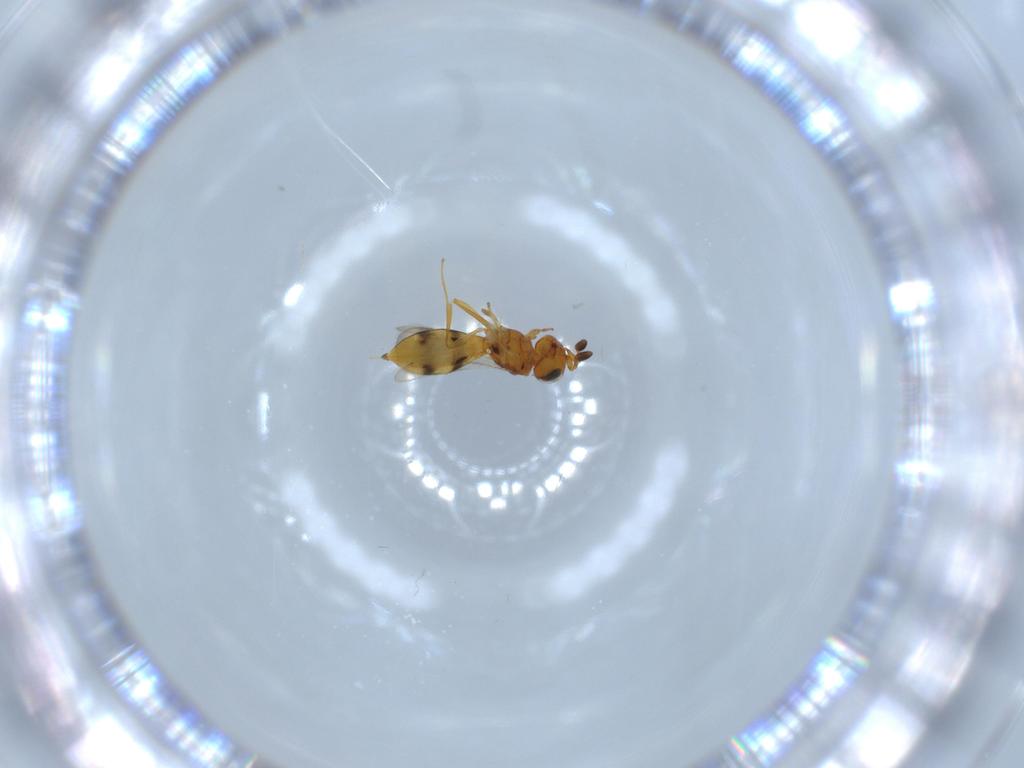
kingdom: Animalia
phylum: Arthropoda
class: Insecta
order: Hymenoptera
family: Scelionidae
